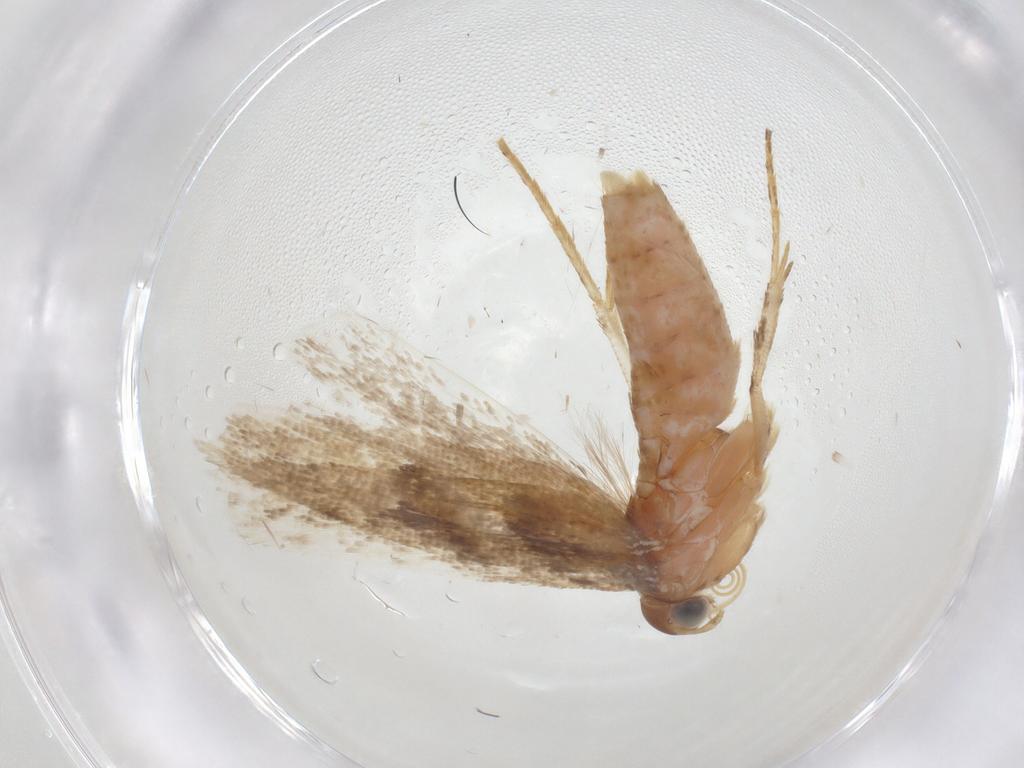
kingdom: Animalia
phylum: Arthropoda
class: Insecta
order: Lepidoptera
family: Gelechiidae
